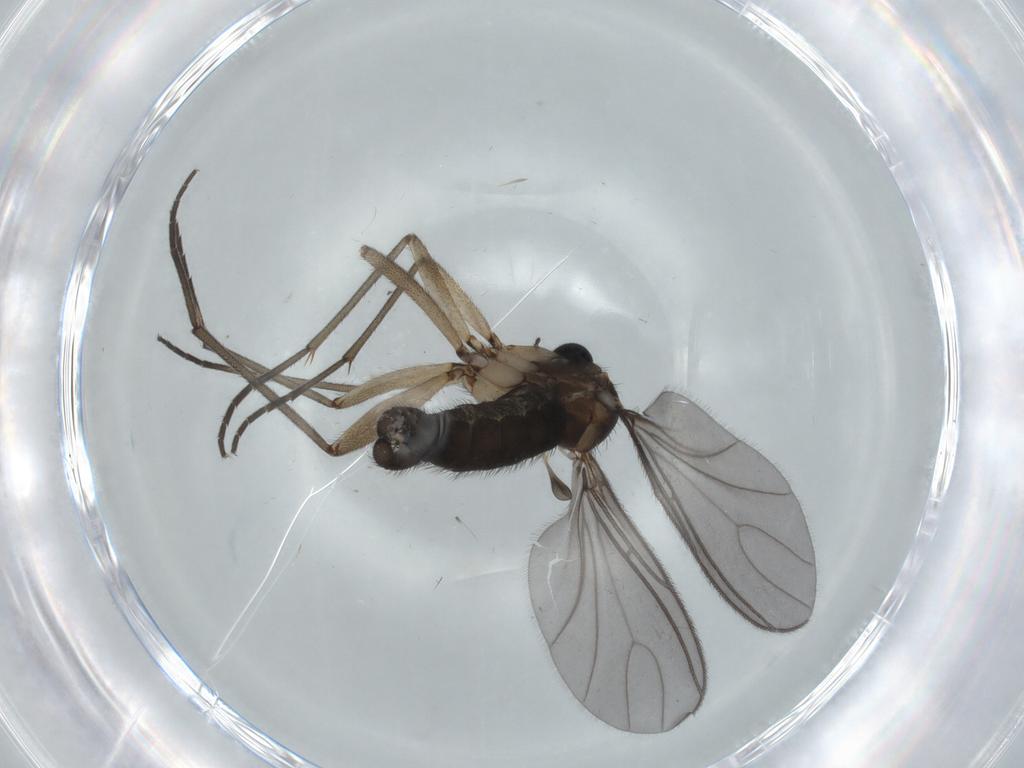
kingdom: Animalia
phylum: Arthropoda
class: Insecta
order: Diptera
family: Sciaridae
